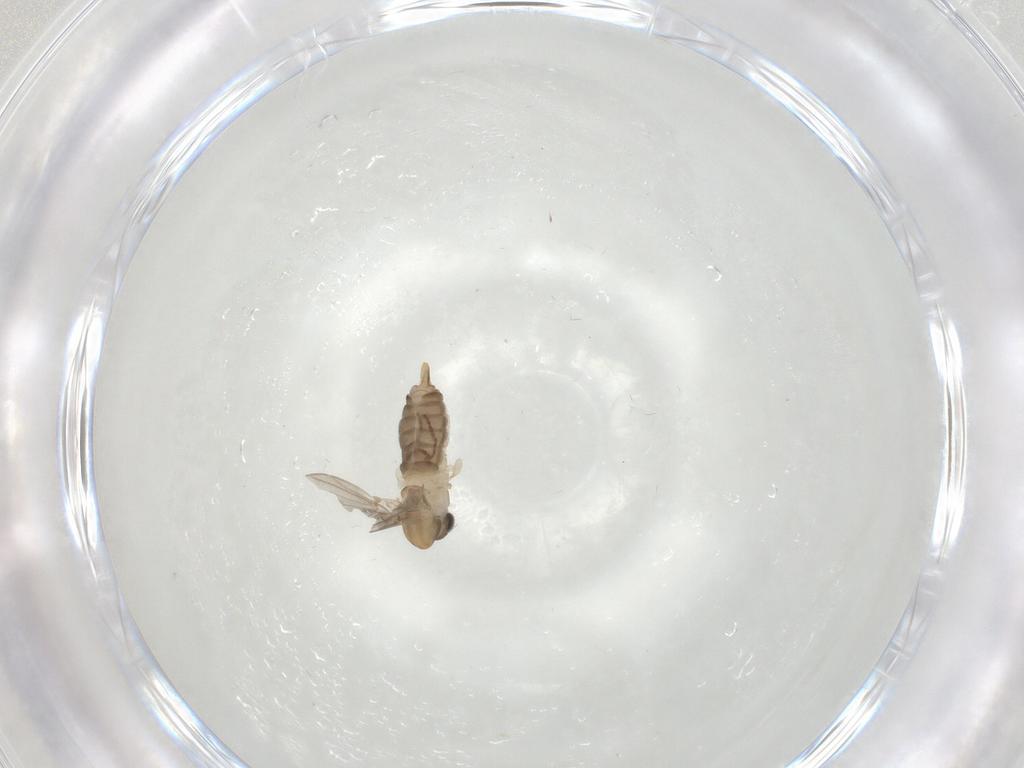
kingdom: Animalia
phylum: Arthropoda
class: Insecta
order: Diptera
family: Psychodidae
